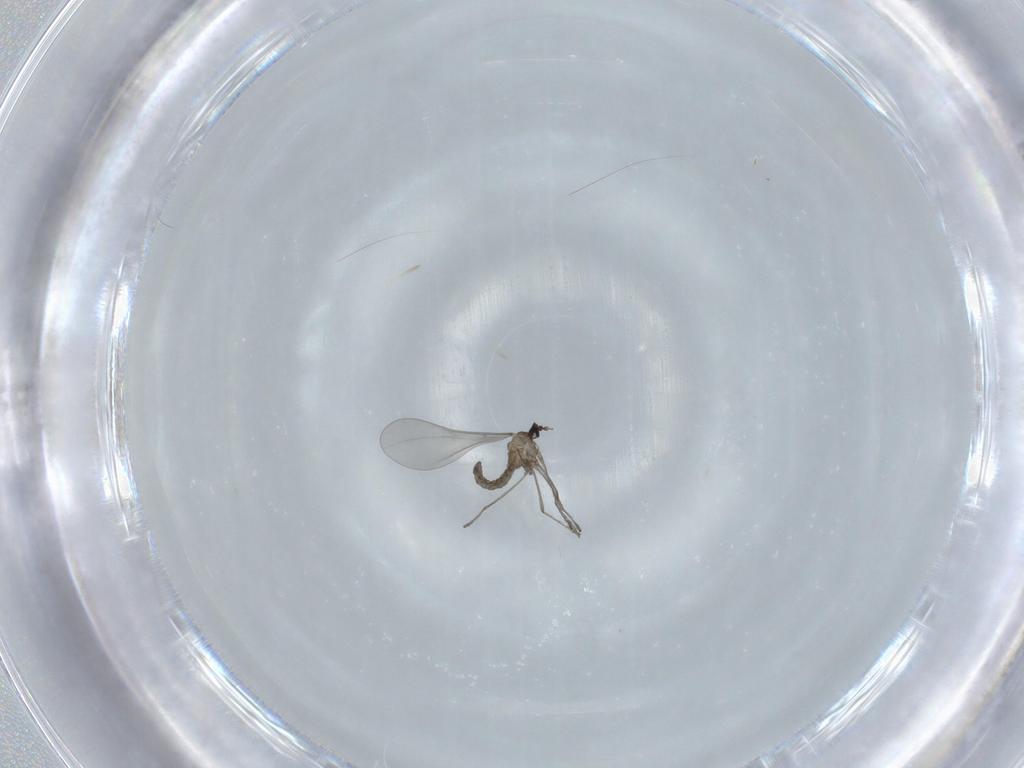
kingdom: Animalia
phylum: Arthropoda
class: Insecta
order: Diptera
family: Cecidomyiidae
